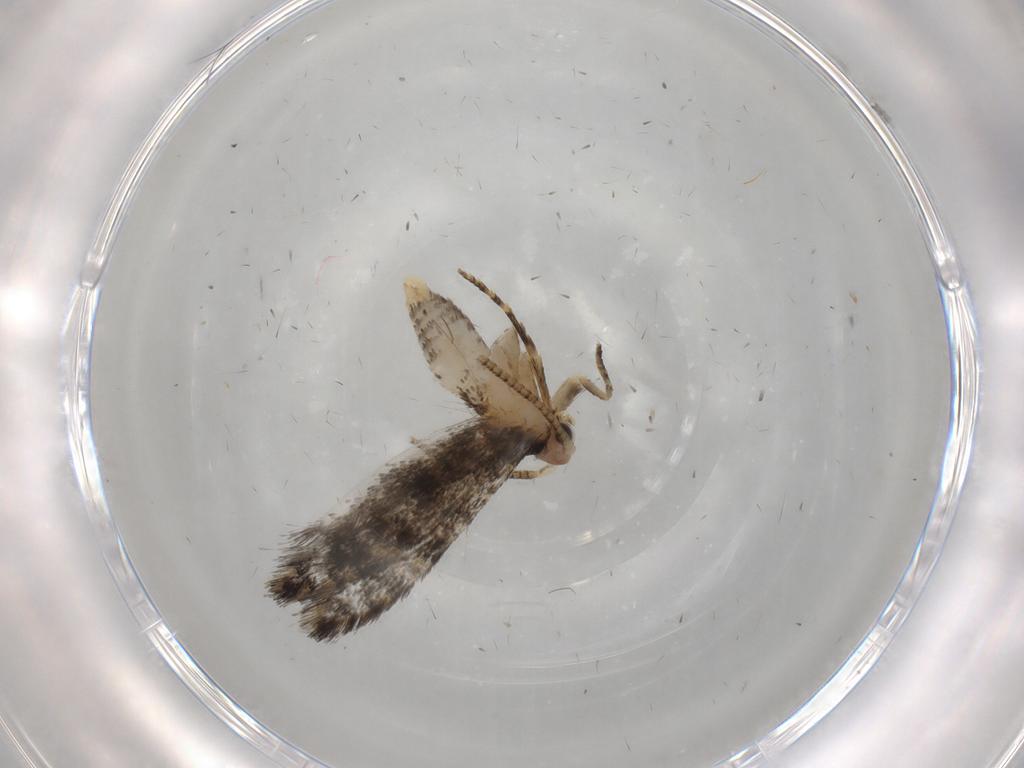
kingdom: Animalia
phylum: Arthropoda
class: Insecta
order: Lepidoptera
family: Tineidae
